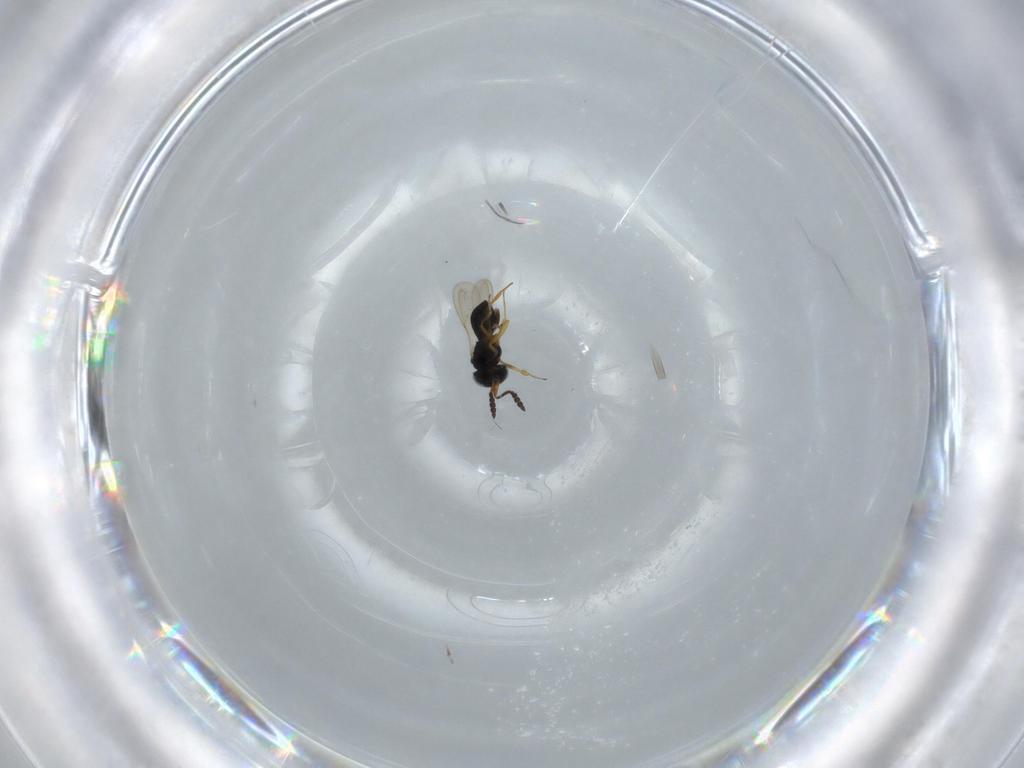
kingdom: Animalia
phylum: Arthropoda
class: Insecta
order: Hymenoptera
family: Scelionidae
